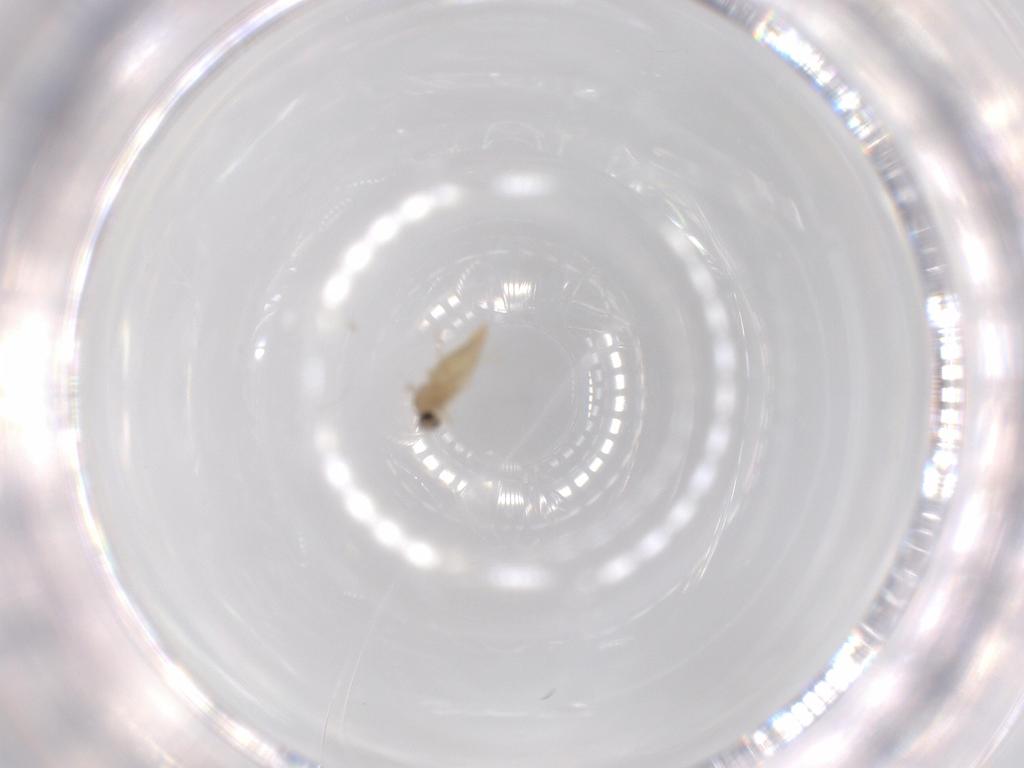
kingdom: Animalia
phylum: Arthropoda
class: Insecta
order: Diptera
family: Cecidomyiidae
